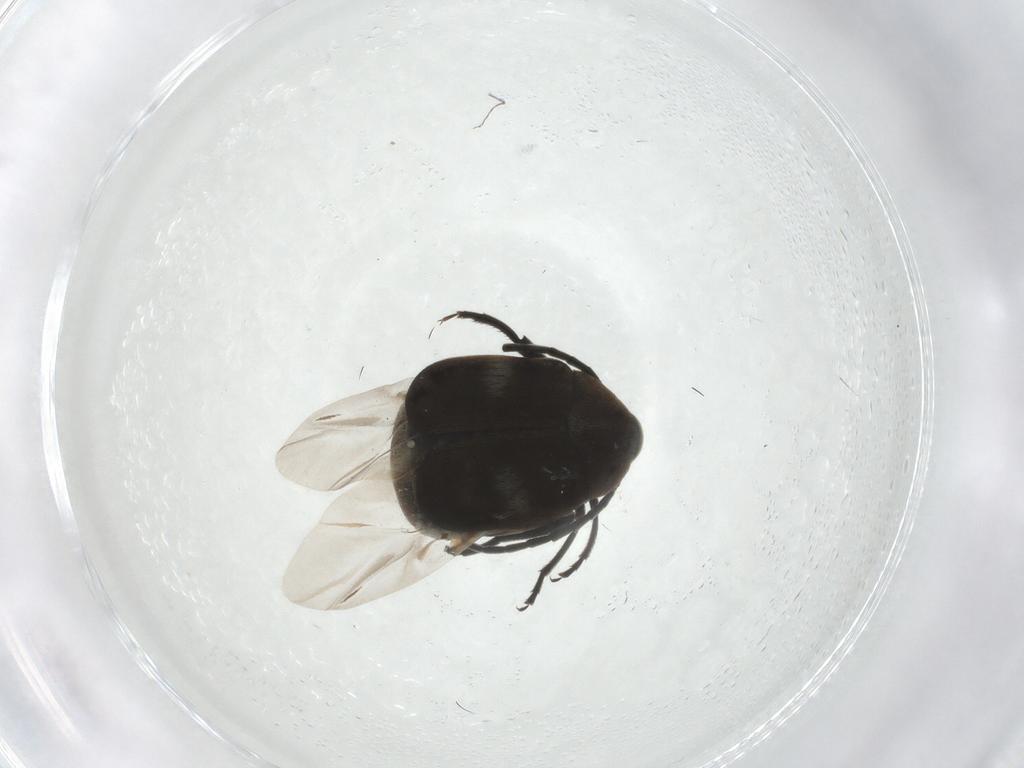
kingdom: Animalia
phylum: Arthropoda
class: Insecta
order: Coleoptera
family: Chrysomelidae
